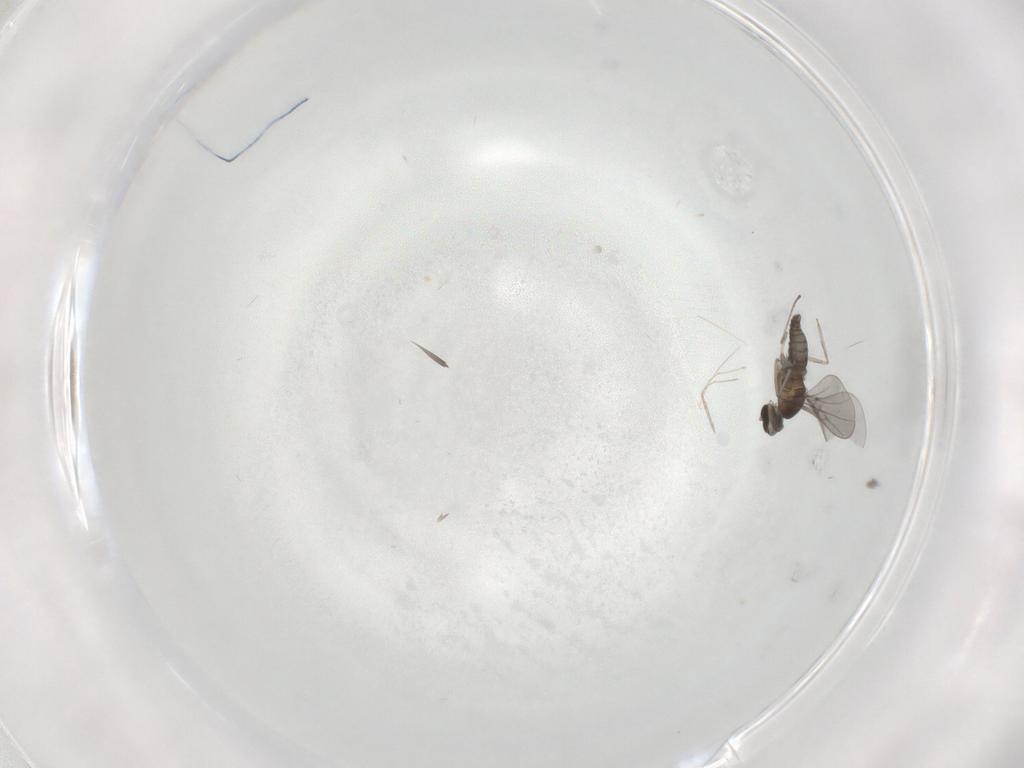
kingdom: Animalia
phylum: Arthropoda
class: Insecta
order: Diptera
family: Cecidomyiidae
